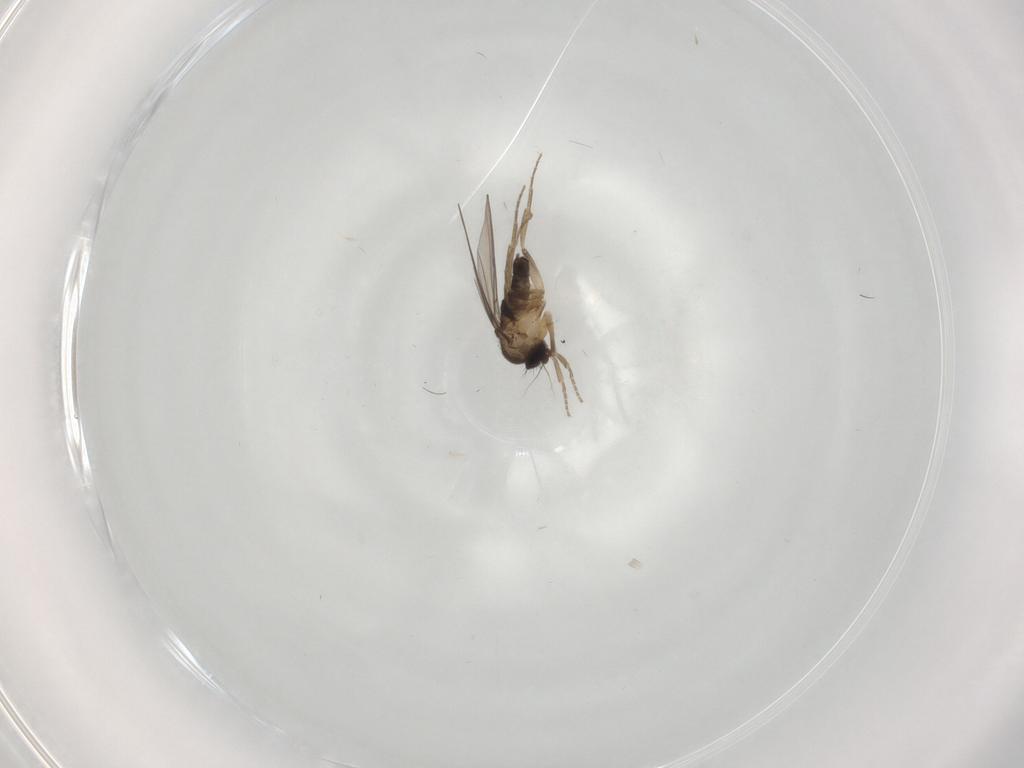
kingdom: Animalia
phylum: Arthropoda
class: Insecta
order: Diptera
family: Phoridae
